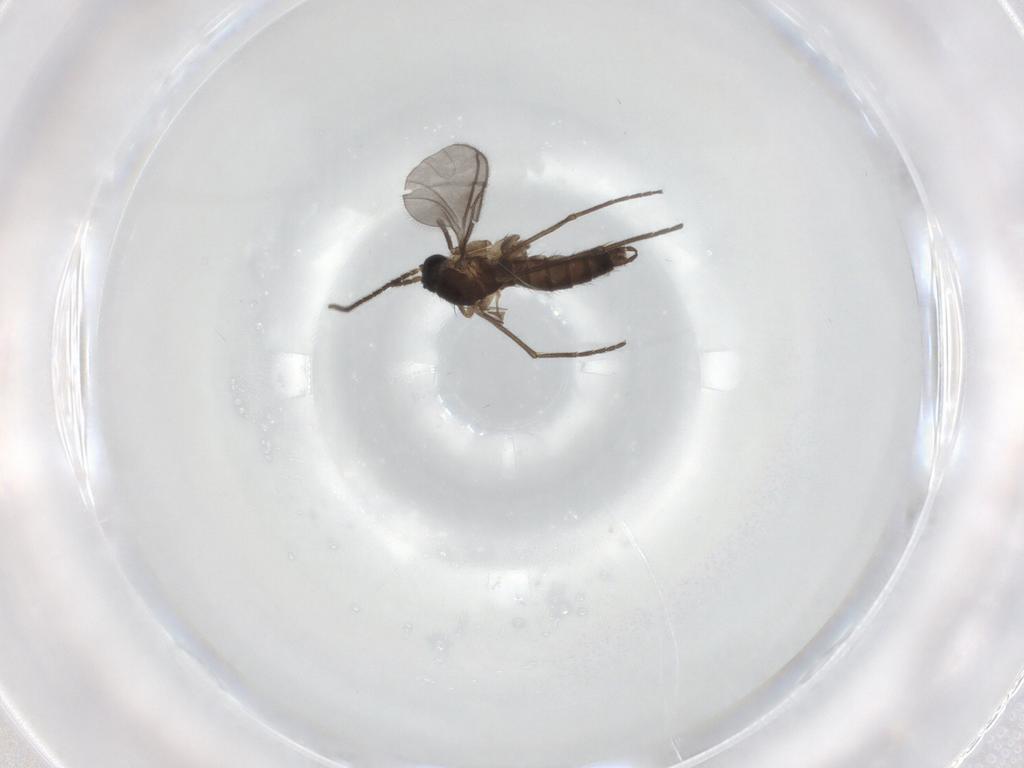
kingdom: Animalia
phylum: Arthropoda
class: Insecta
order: Diptera
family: Sciaridae
